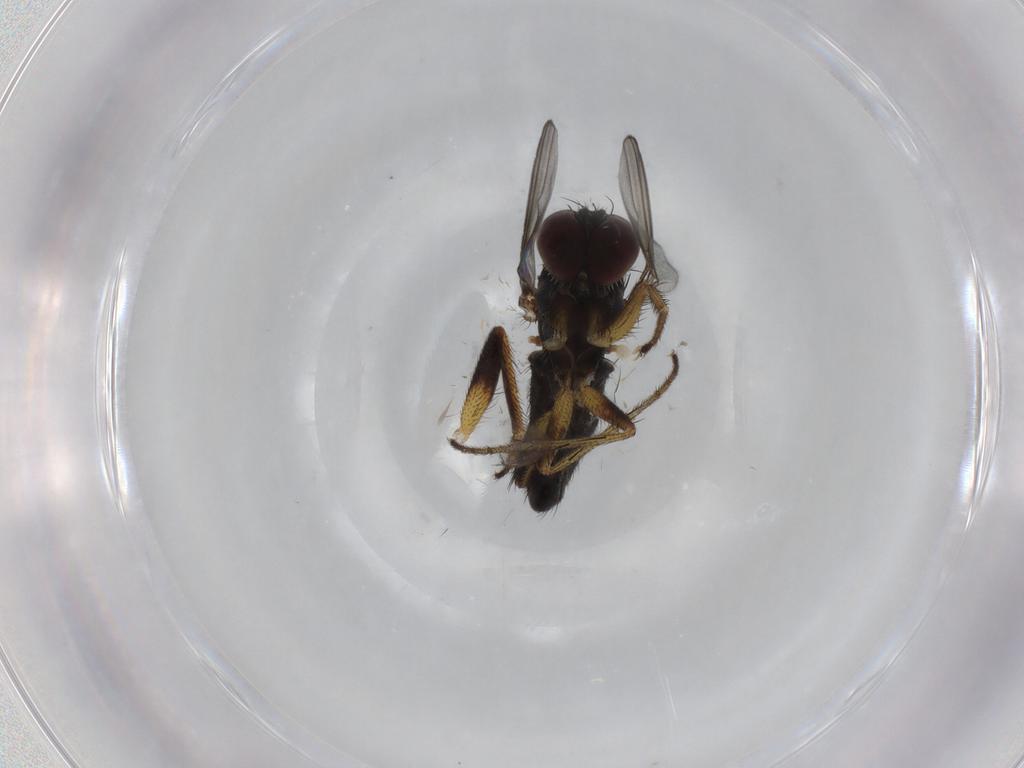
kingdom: Animalia
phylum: Arthropoda
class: Insecta
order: Diptera
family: Dolichopodidae
